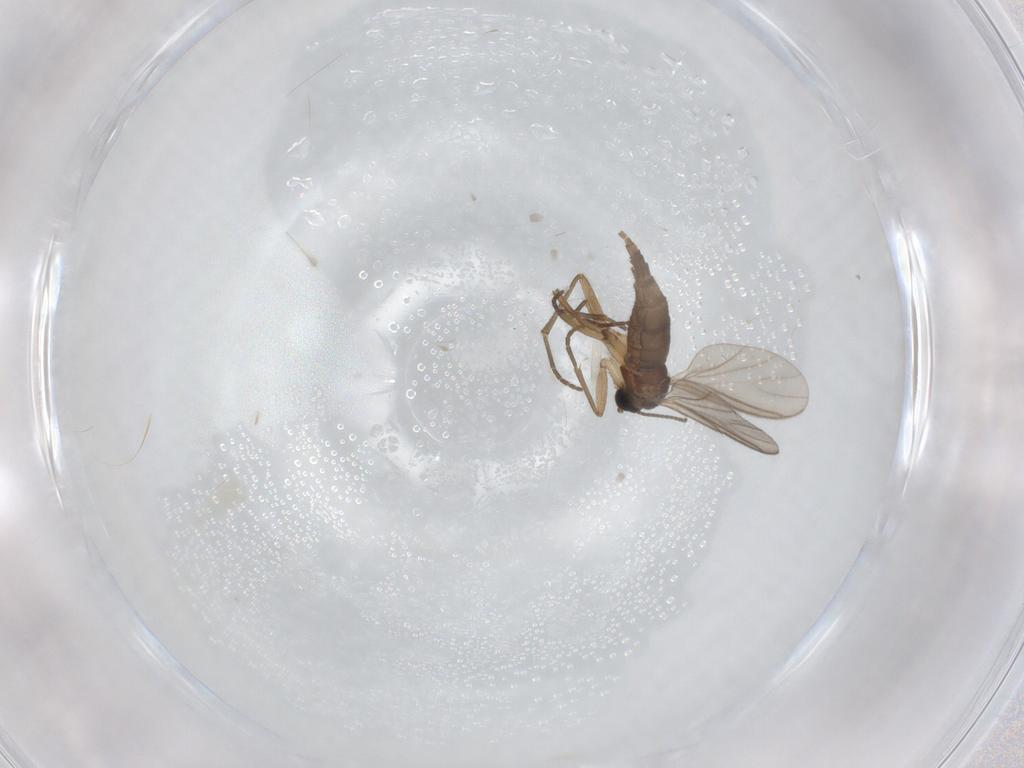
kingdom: Animalia
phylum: Arthropoda
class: Insecta
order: Diptera
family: Sciaridae
